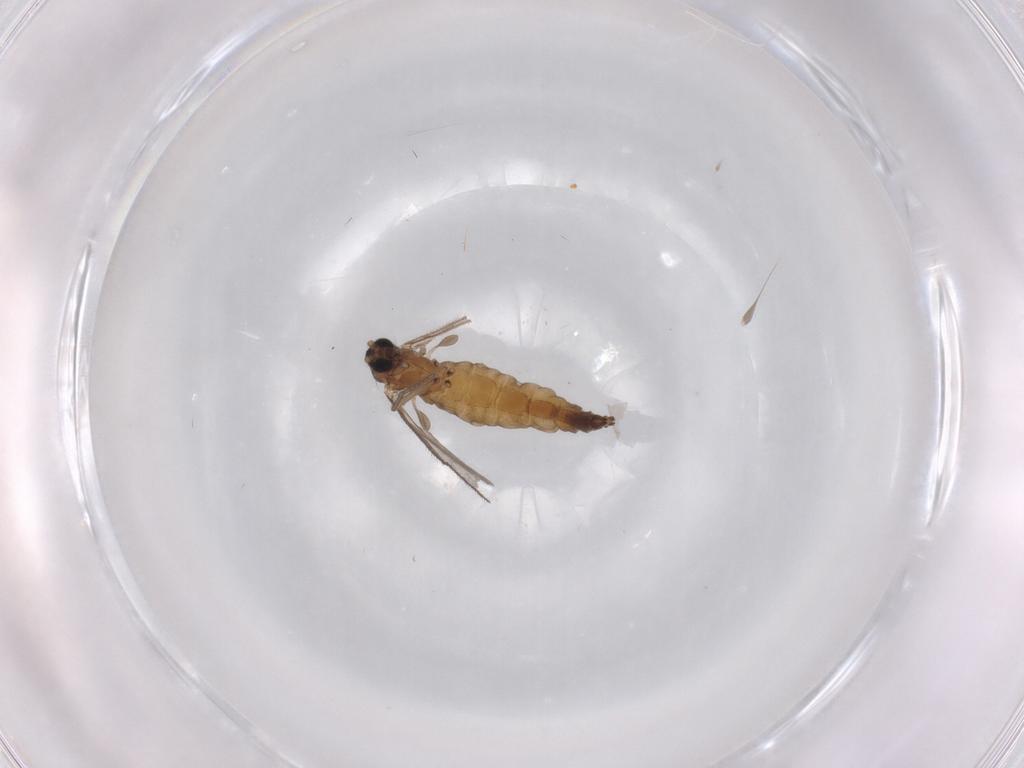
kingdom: Animalia
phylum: Arthropoda
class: Insecta
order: Diptera
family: Sciaridae
